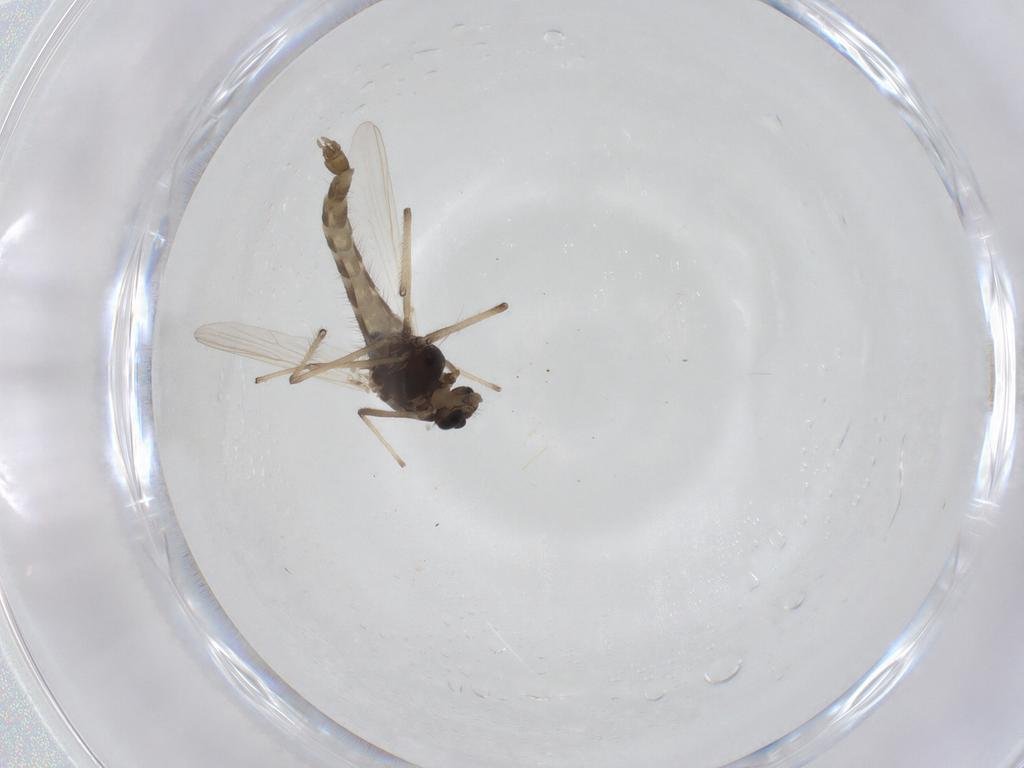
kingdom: Animalia
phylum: Arthropoda
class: Insecta
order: Diptera
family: Chironomidae
